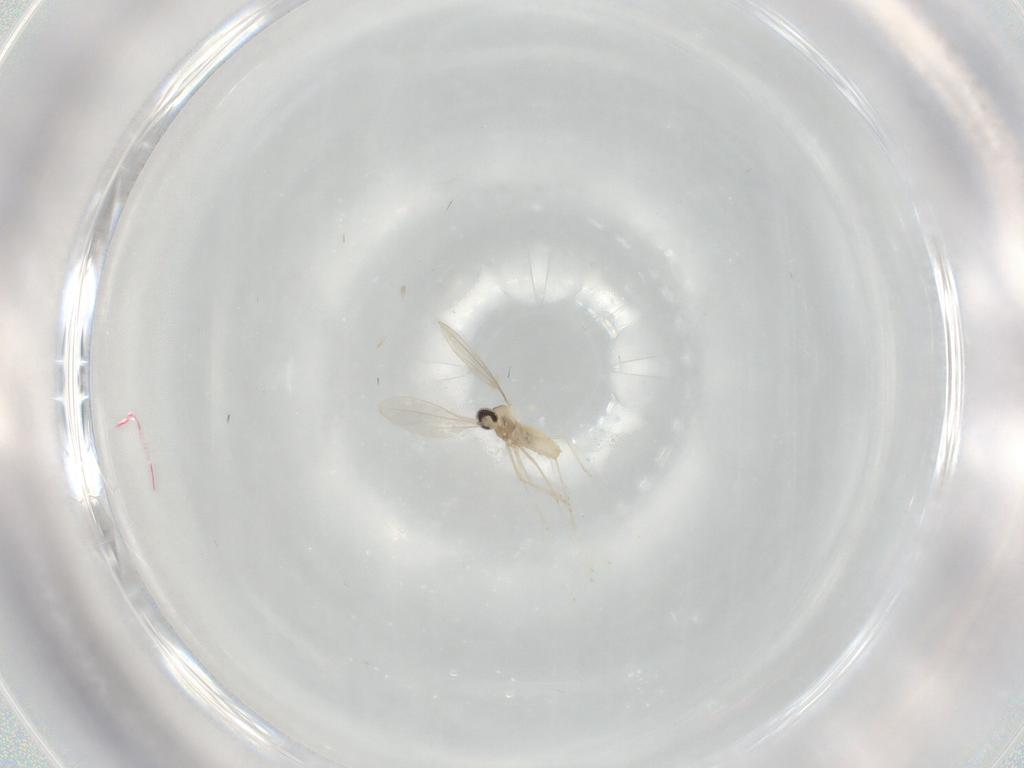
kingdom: Animalia
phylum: Arthropoda
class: Insecta
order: Diptera
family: Cecidomyiidae
